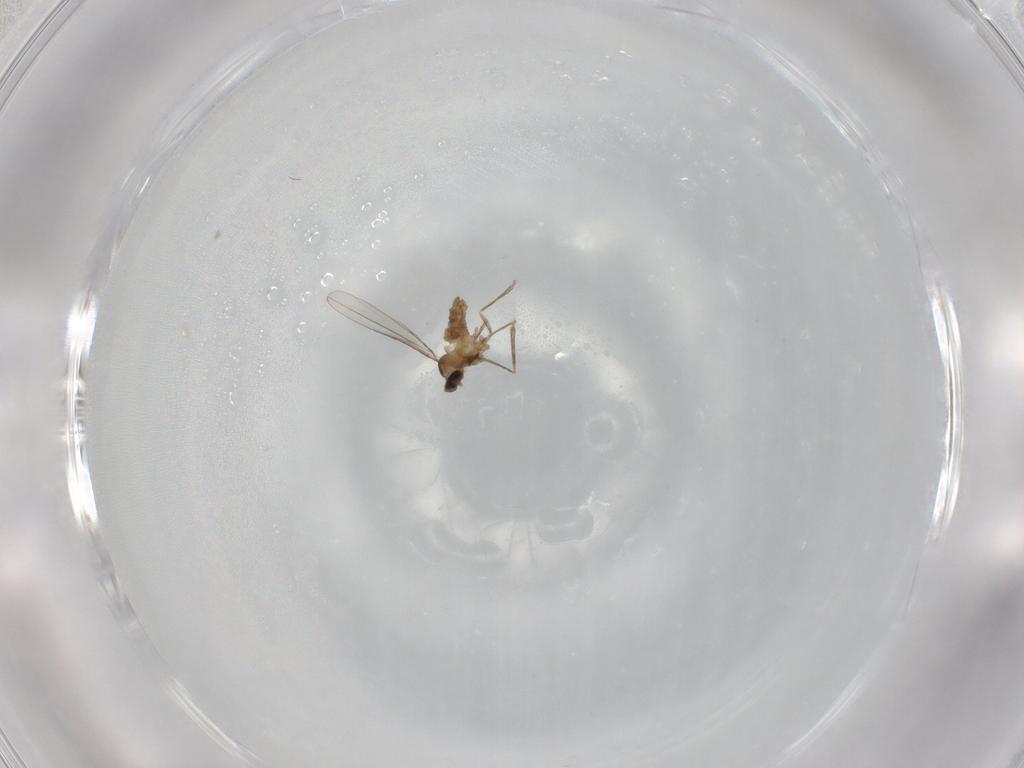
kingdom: Animalia
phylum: Arthropoda
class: Insecta
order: Diptera
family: Cecidomyiidae
